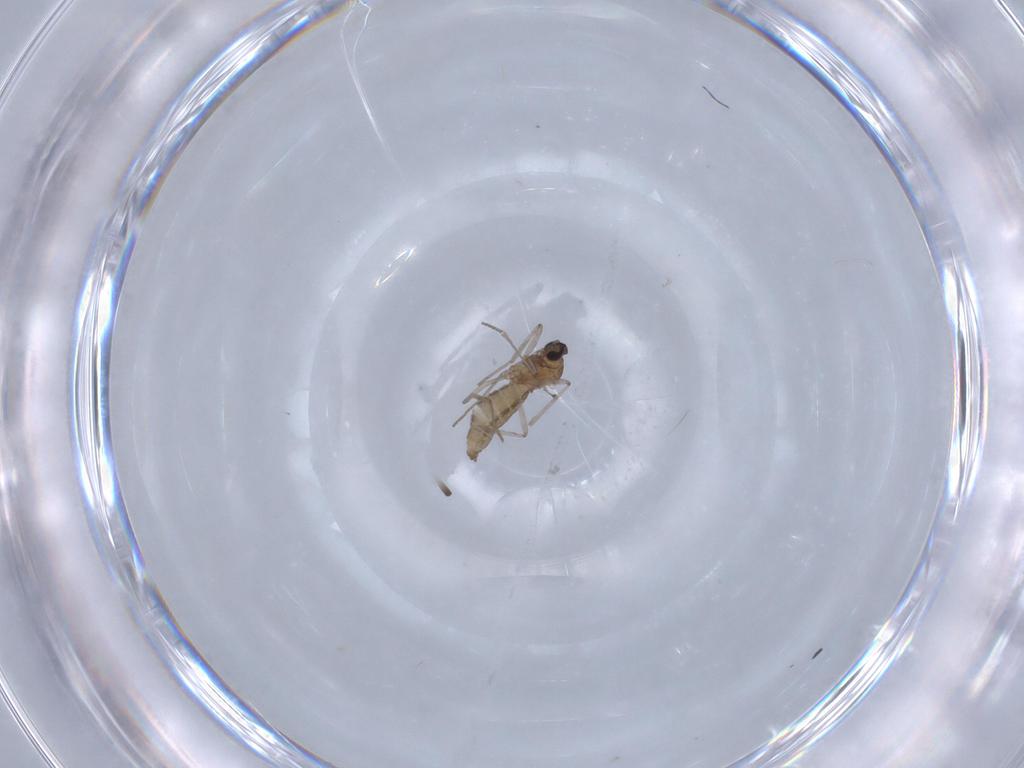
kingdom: Animalia
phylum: Arthropoda
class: Insecta
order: Diptera
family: Cecidomyiidae
